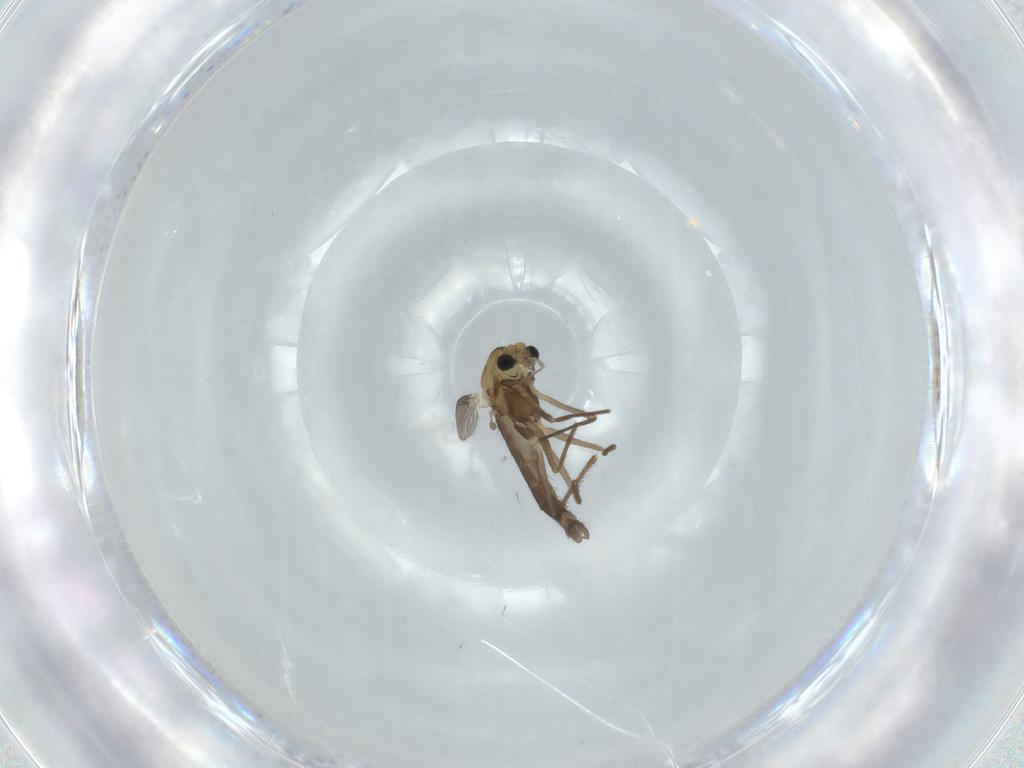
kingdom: Animalia
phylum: Arthropoda
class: Insecta
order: Diptera
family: Chironomidae
